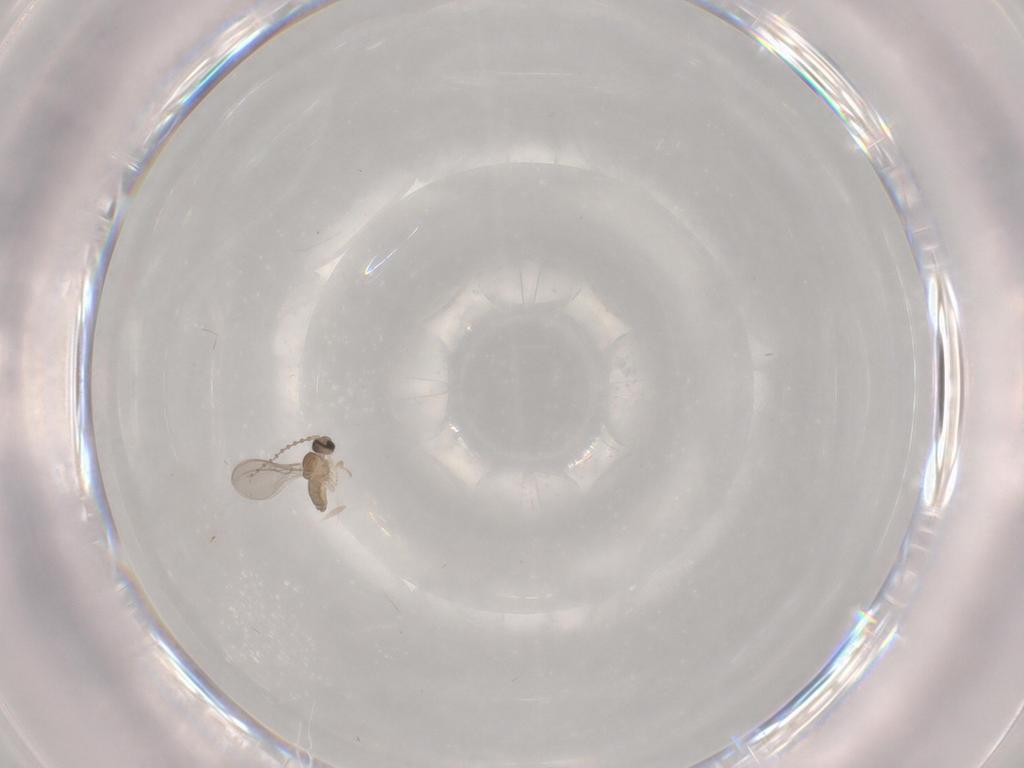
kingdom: Animalia
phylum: Arthropoda
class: Insecta
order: Diptera
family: Cecidomyiidae
